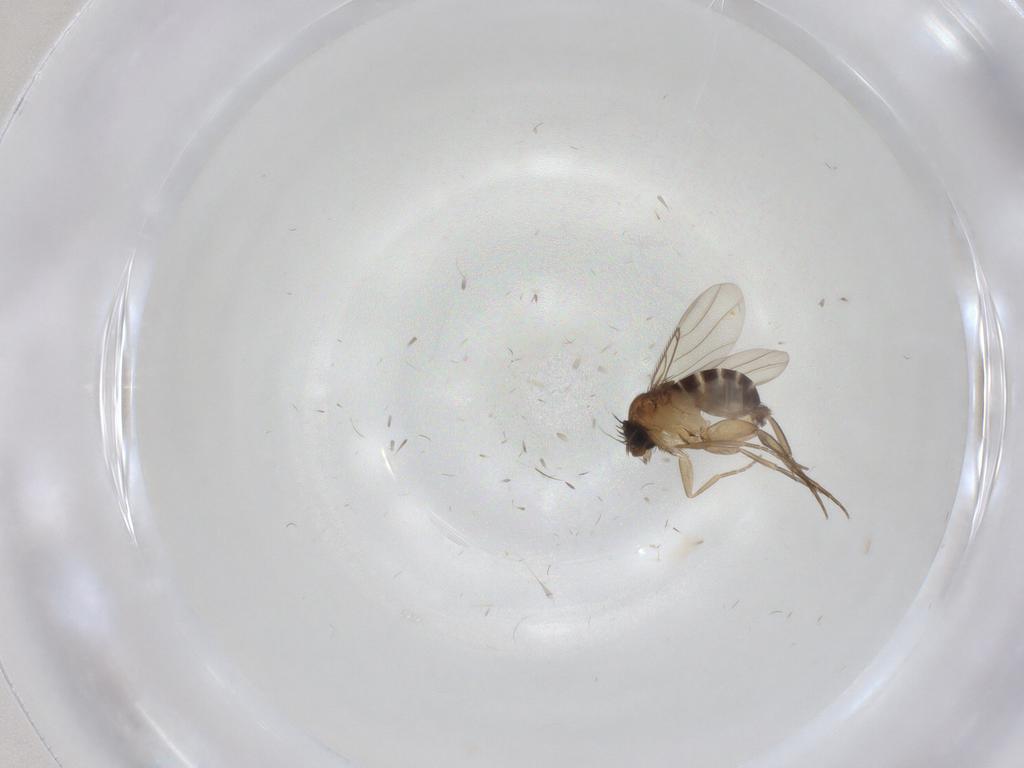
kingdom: Animalia
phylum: Arthropoda
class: Insecta
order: Diptera
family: Phoridae
